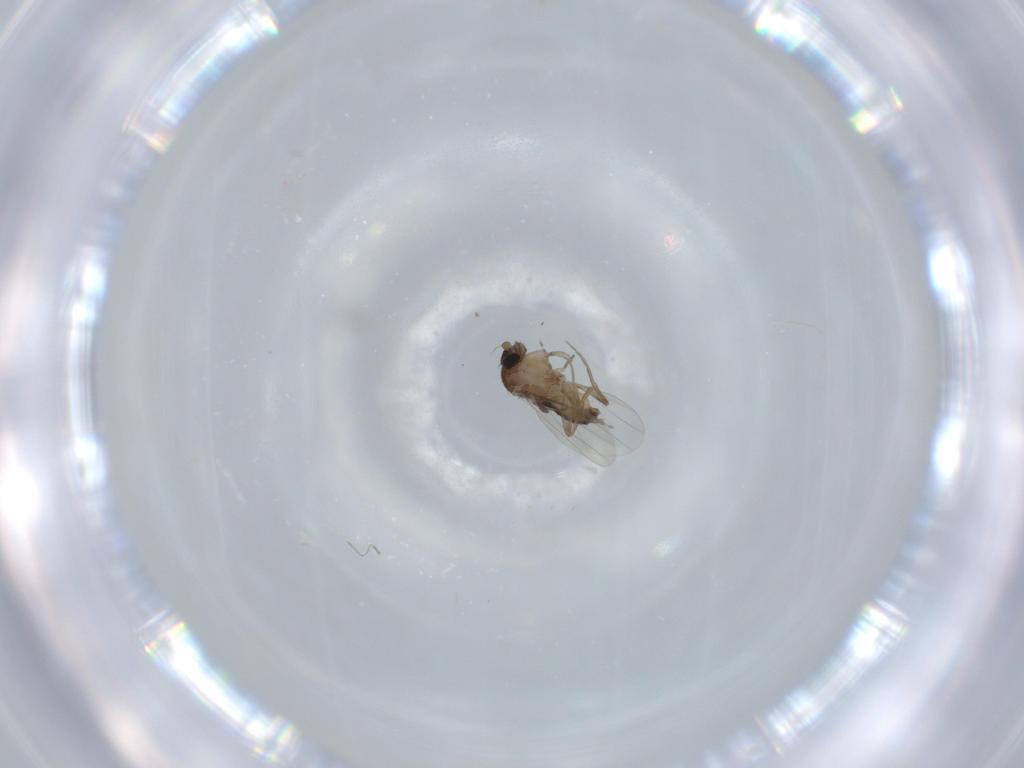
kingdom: Animalia
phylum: Arthropoda
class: Insecta
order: Diptera
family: Phoridae
